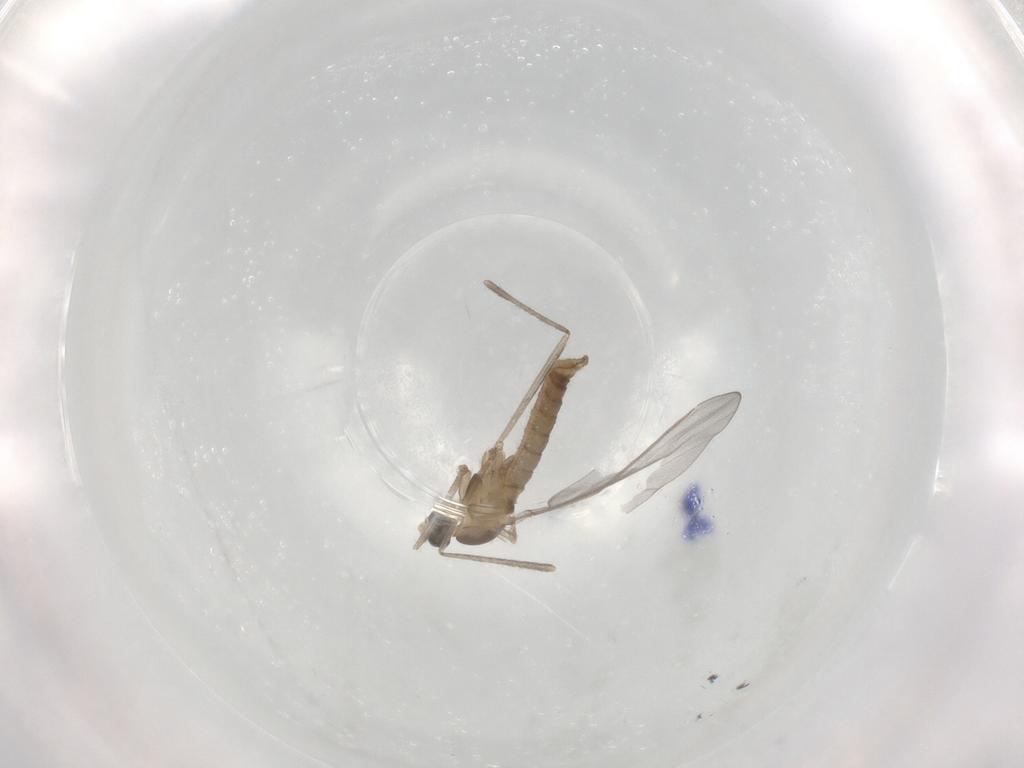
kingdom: Animalia
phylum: Arthropoda
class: Insecta
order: Diptera
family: Cecidomyiidae
